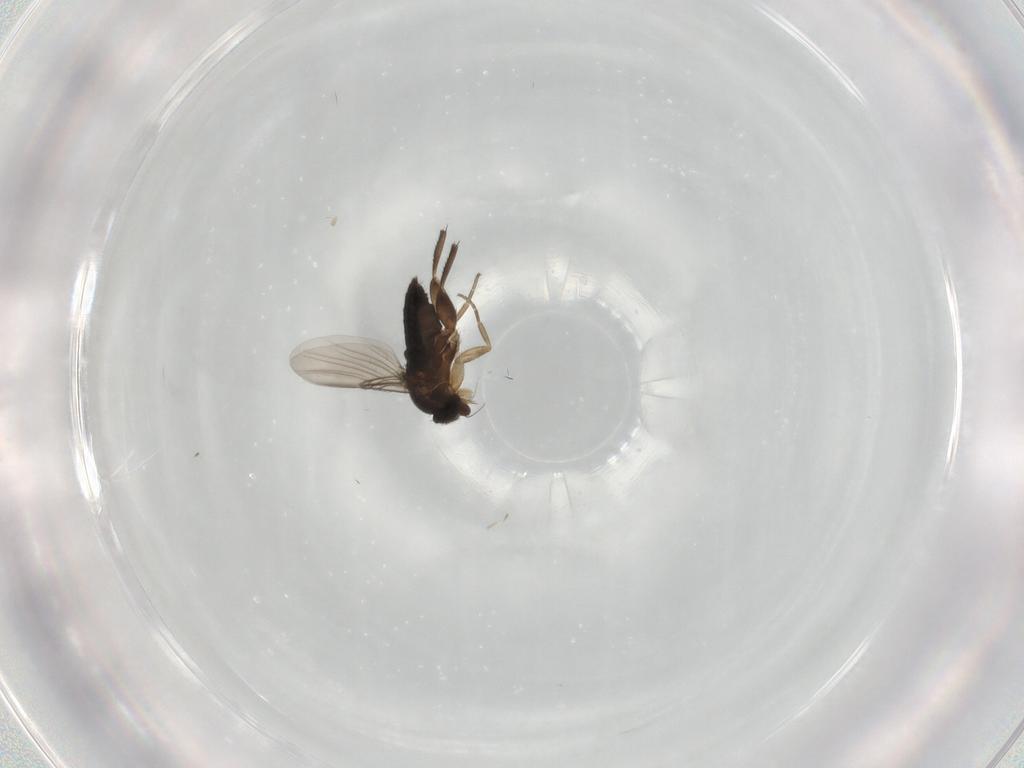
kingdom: Animalia
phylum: Arthropoda
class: Insecta
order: Diptera
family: Phoridae
